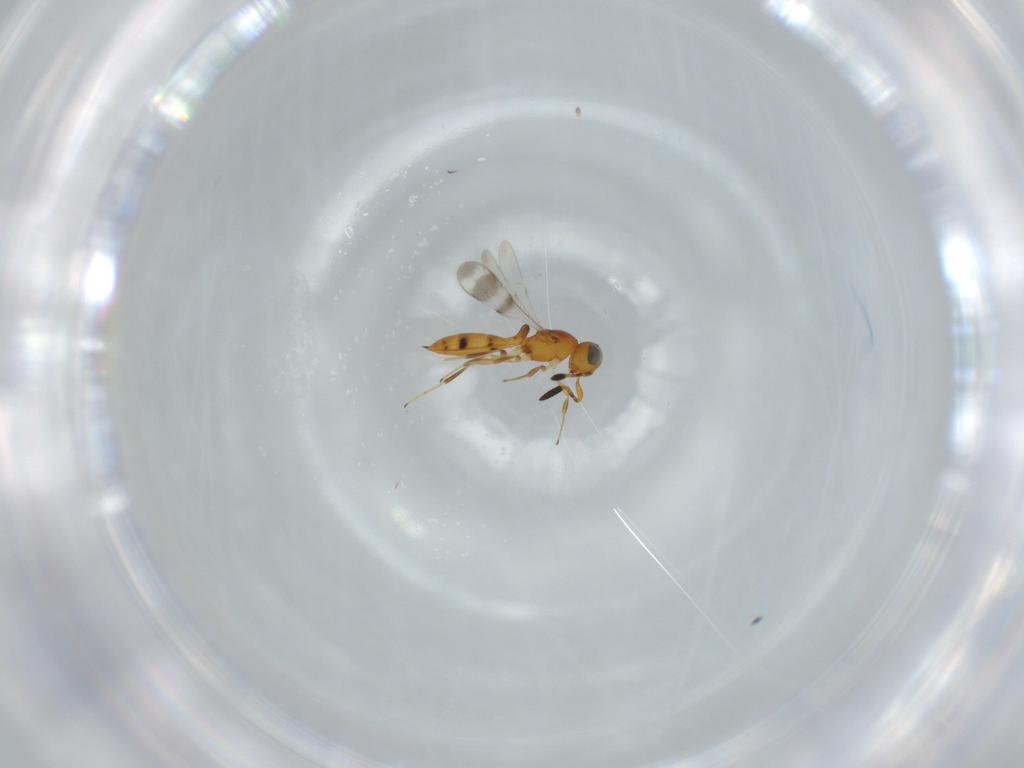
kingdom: Animalia
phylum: Arthropoda
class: Insecta
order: Hymenoptera
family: Scelionidae
